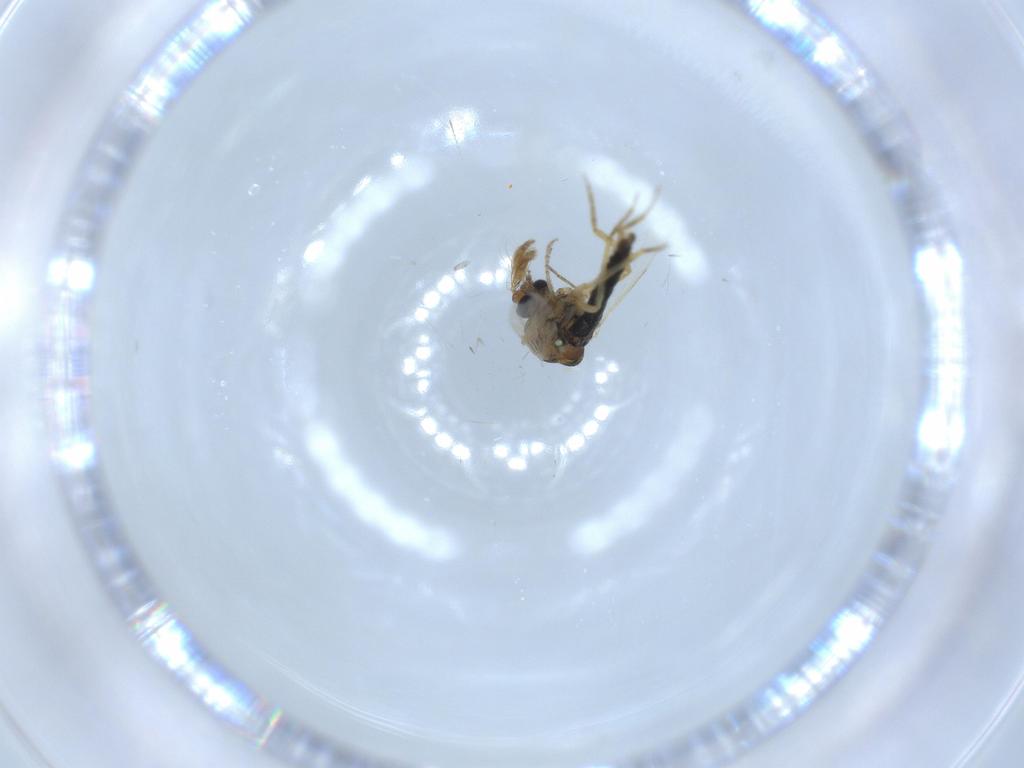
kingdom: Animalia
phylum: Arthropoda
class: Insecta
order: Diptera
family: Ceratopogonidae
